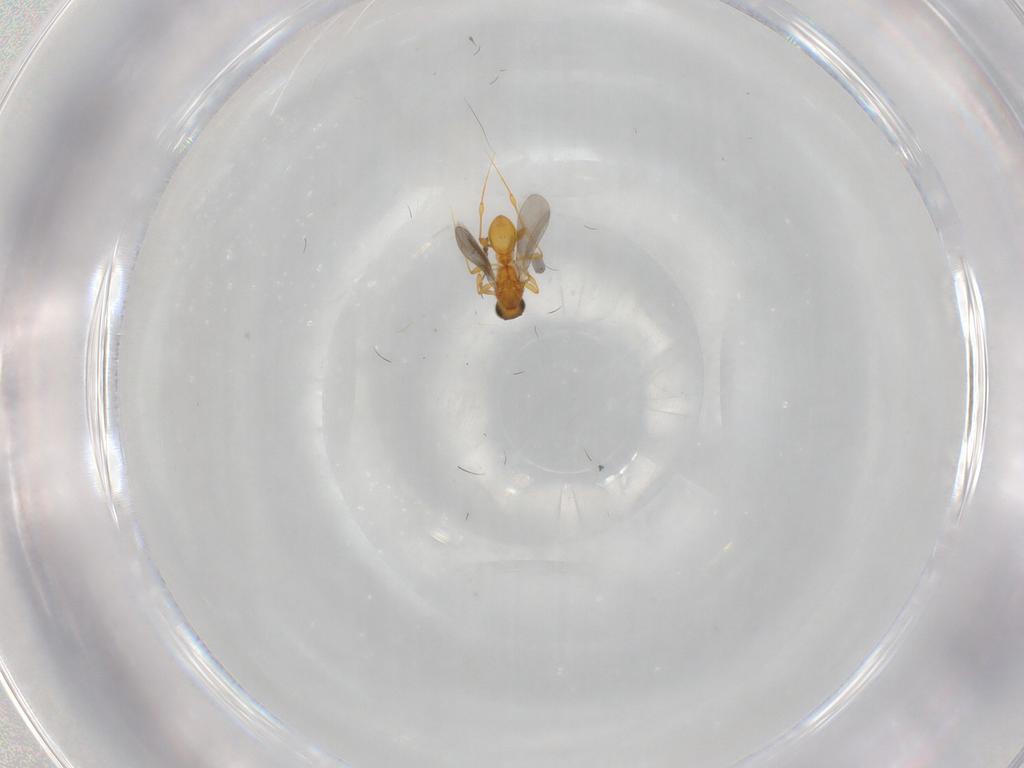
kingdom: Animalia
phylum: Arthropoda
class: Insecta
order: Hymenoptera
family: Platygastridae
